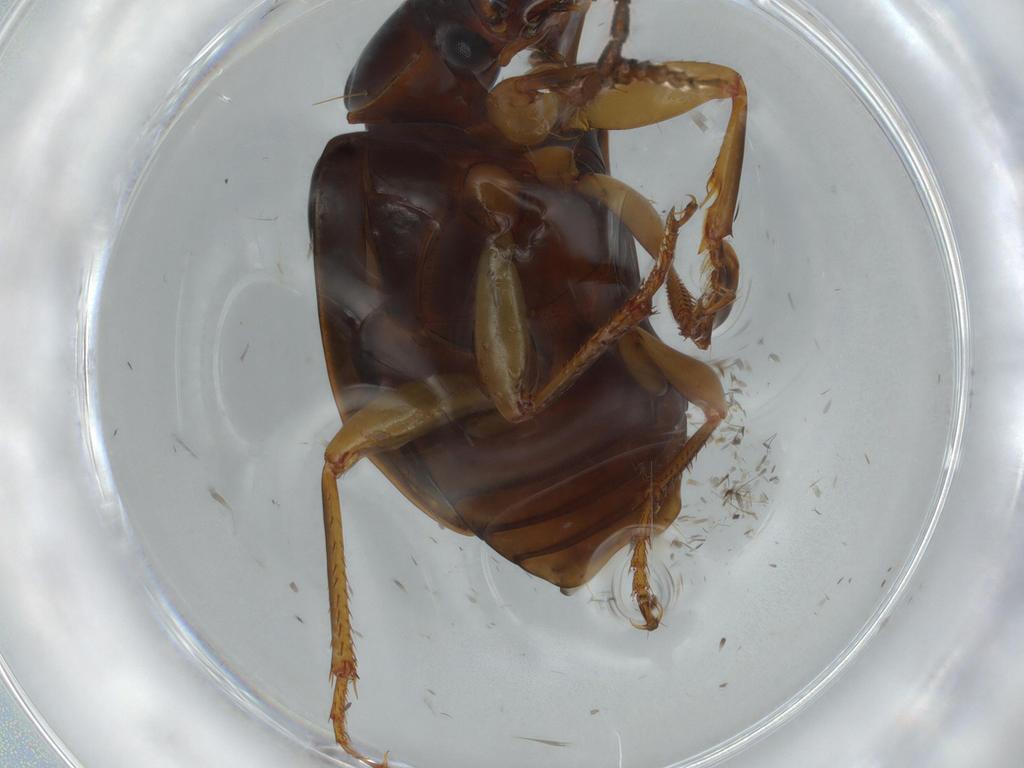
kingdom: Animalia
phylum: Arthropoda
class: Insecta
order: Coleoptera
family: Carabidae
